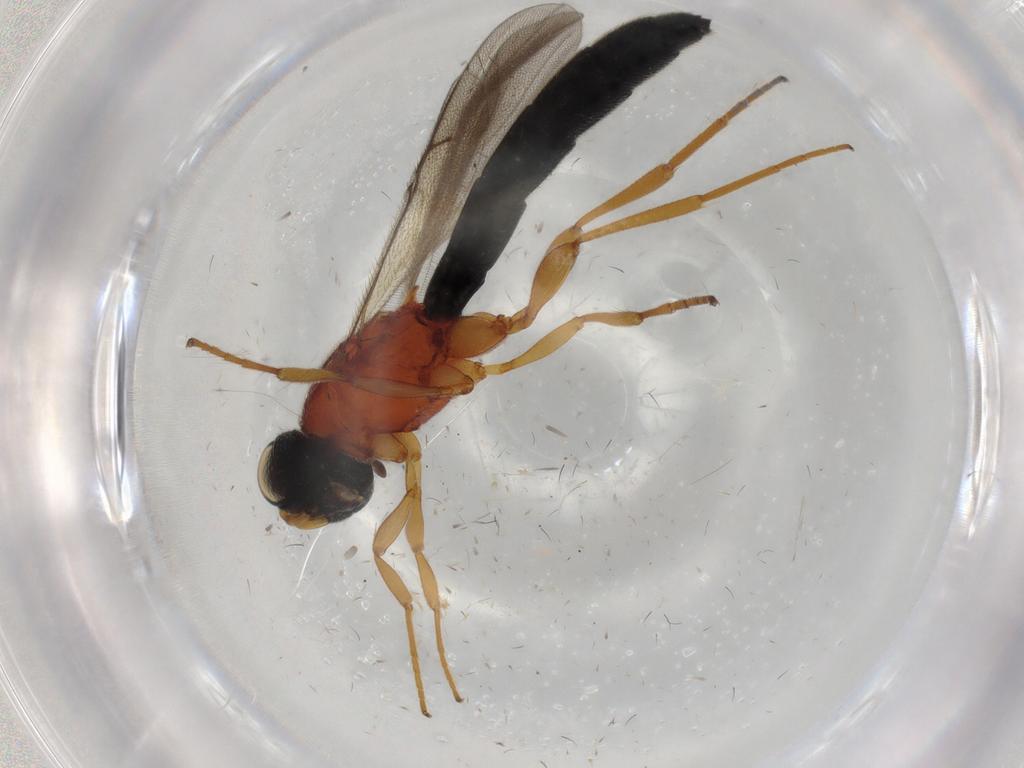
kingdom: Animalia
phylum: Arthropoda
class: Insecta
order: Hymenoptera
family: Scelionidae
